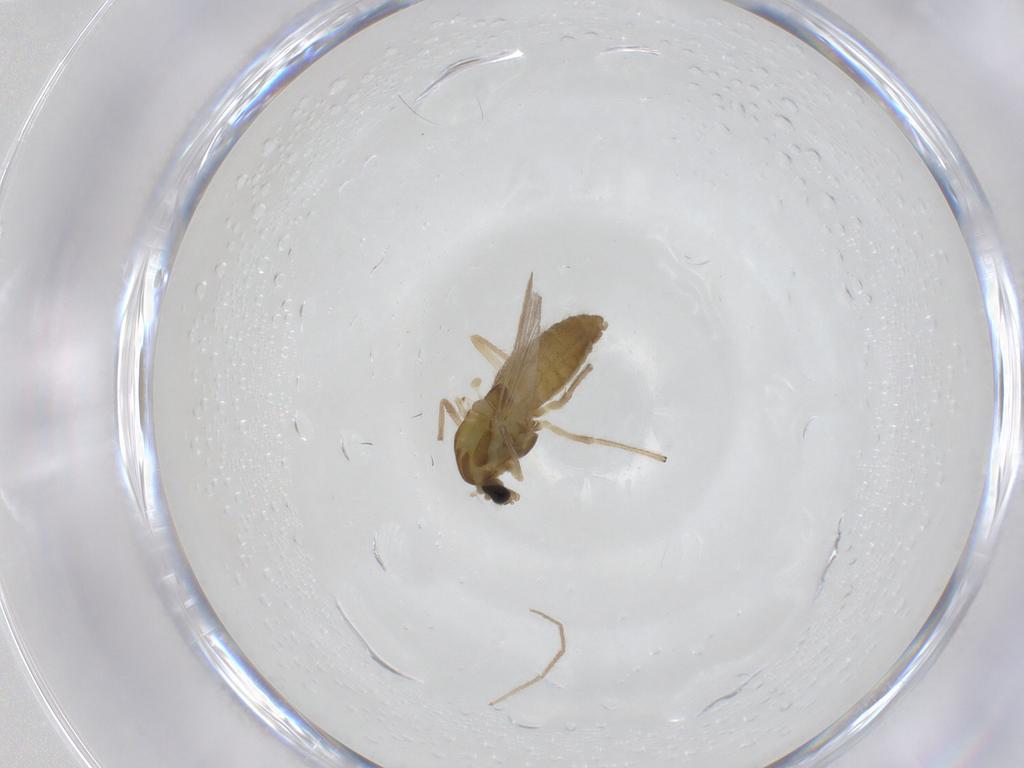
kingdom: Animalia
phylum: Arthropoda
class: Insecta
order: Diptera
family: Chironomidae
